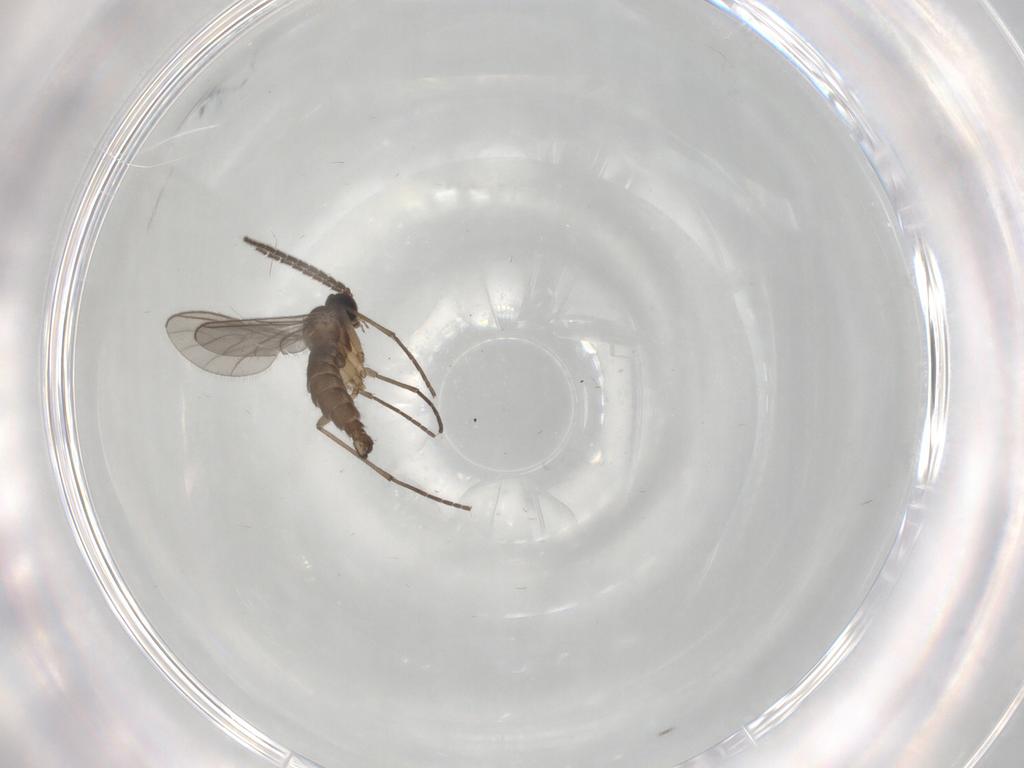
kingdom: Animalia
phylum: Arthropoda
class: Insecta
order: Diptera
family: Sciaridae
